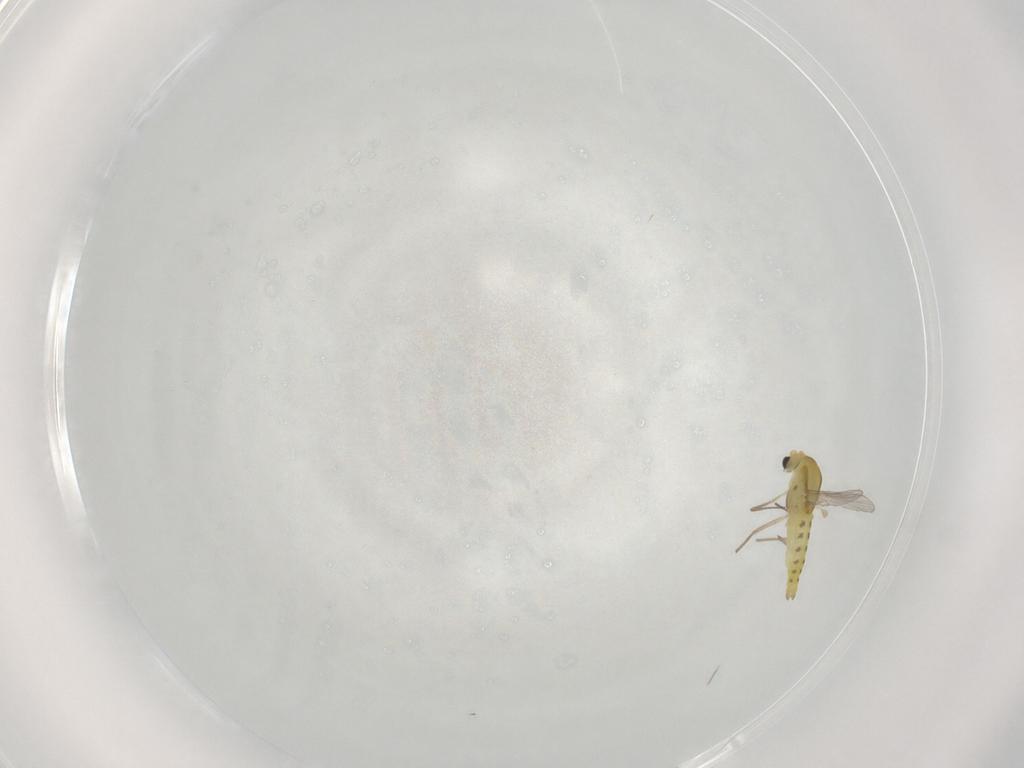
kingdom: Animalia
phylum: Arthropoda
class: Insecta
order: Diptera
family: Chironomidae
